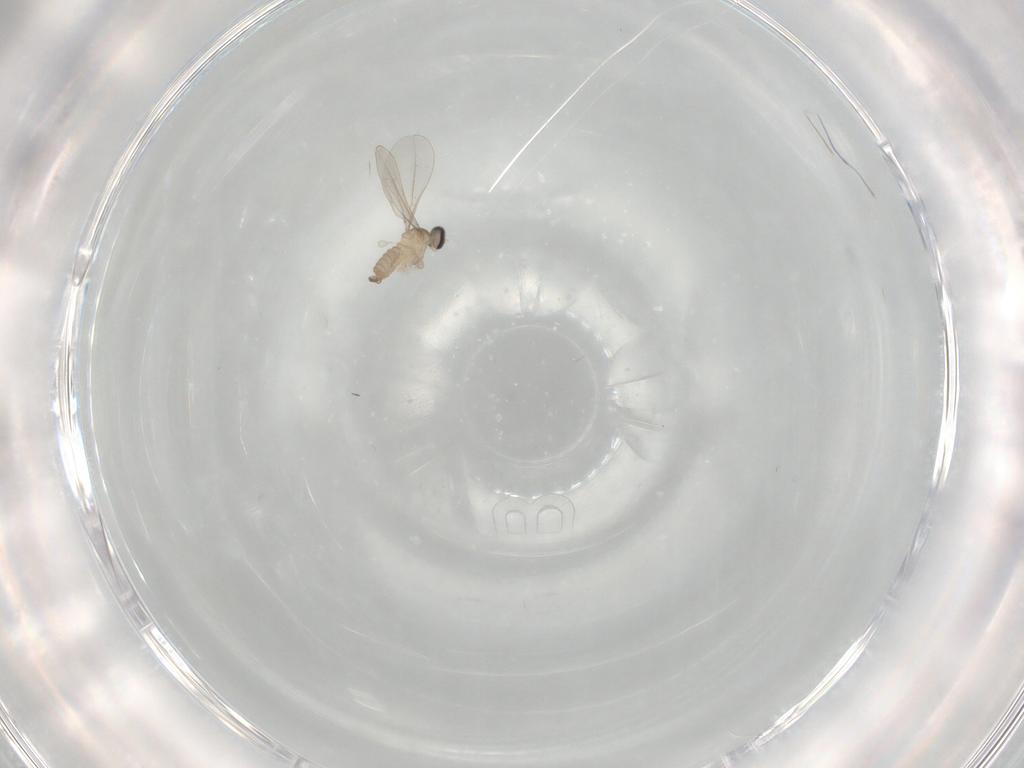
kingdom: Animalia
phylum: Arthropoda
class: Insecta
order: Diptera
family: Cecidomyiidae
